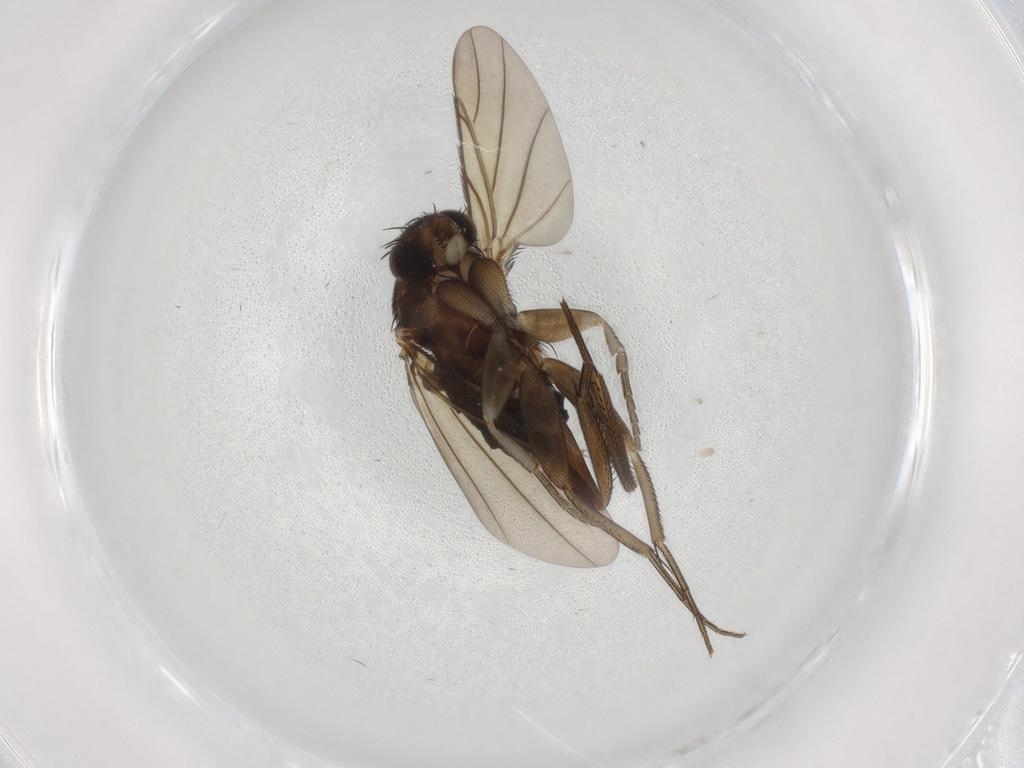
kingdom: Animalia
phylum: Arthropoda
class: Insecta
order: Diptera
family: Phoridae
